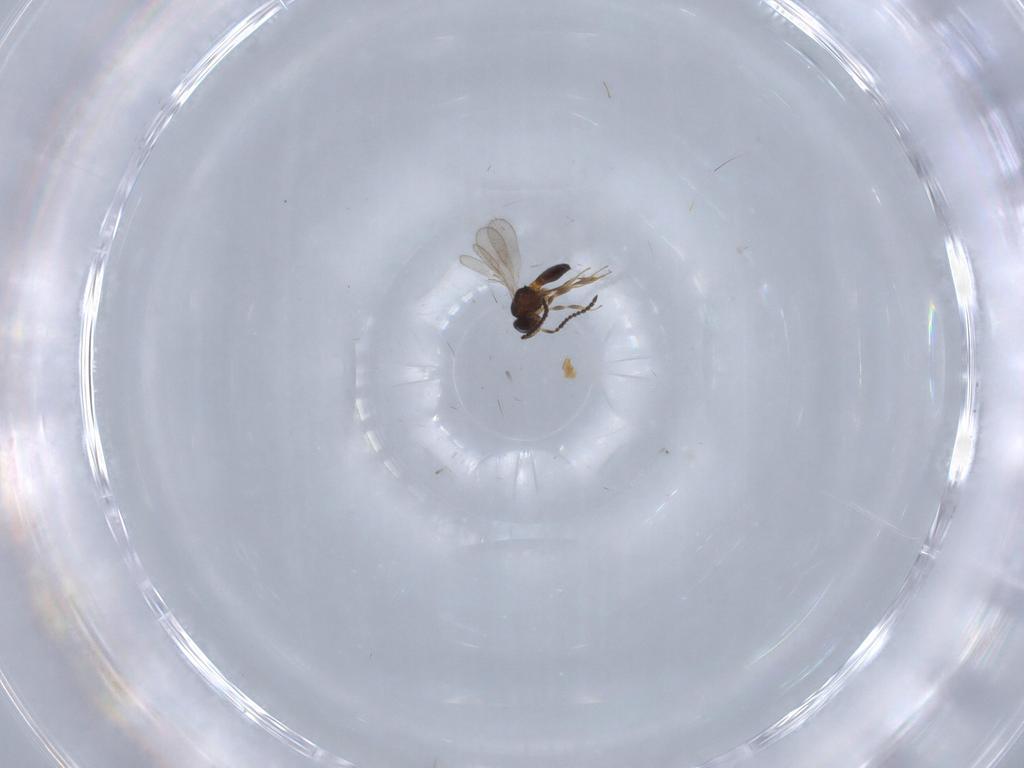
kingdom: Animalia
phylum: Arthropoda
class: Insecta
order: Hymenoptera
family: Scelionidae
